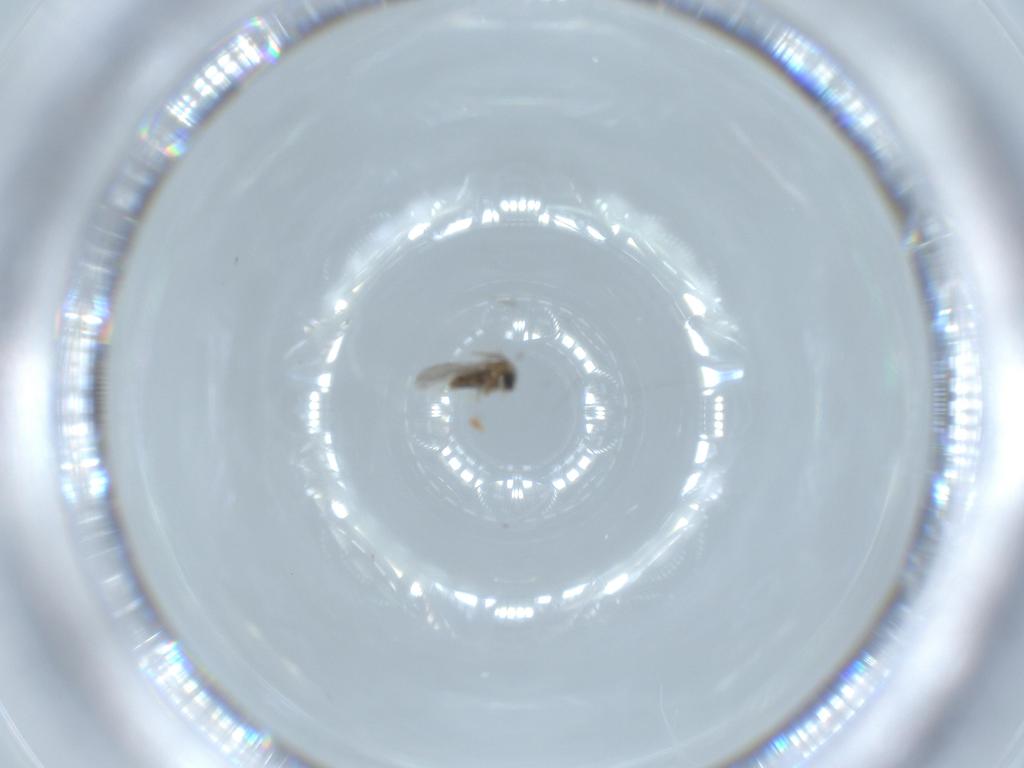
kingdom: Animalia
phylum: Arthropoda
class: Insecta
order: Diptera
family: Cecidomyiidae
